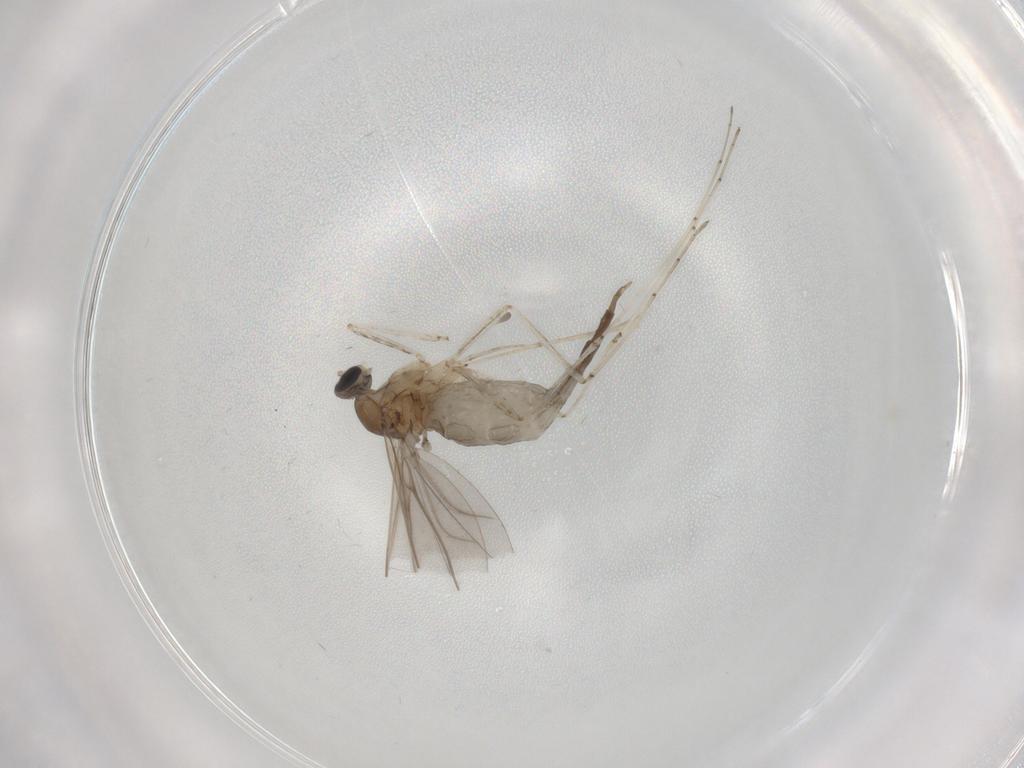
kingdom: Animalia
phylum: Arthropoda
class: Insecta
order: Diptera
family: Cecidomyiidae
